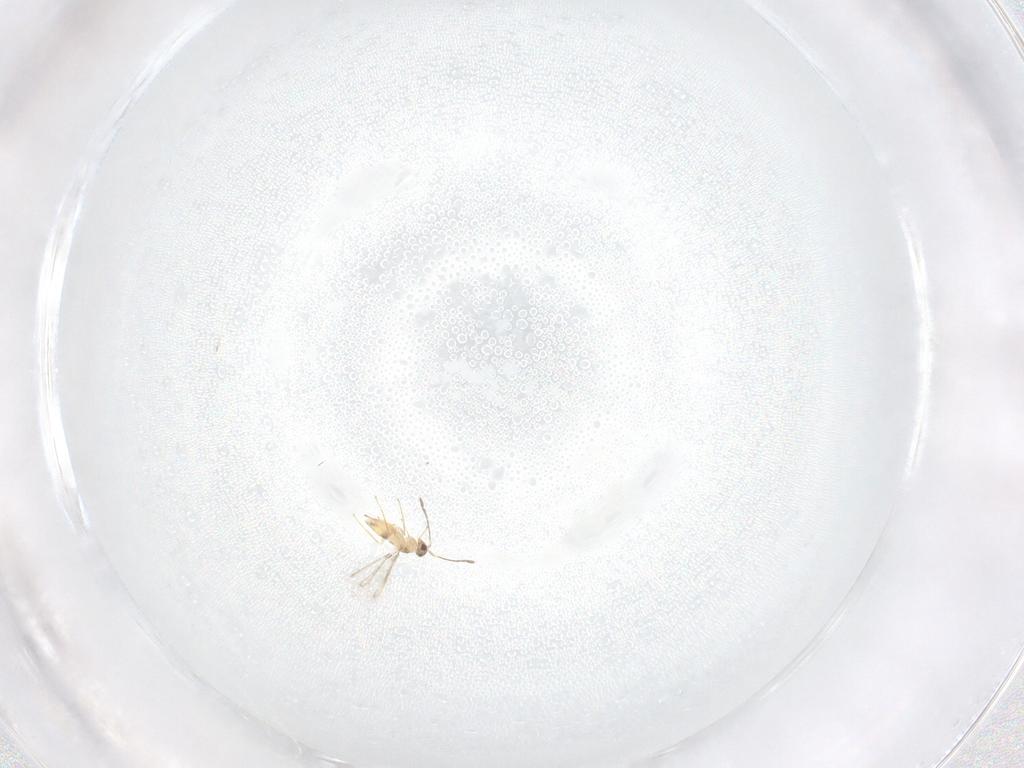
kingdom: Animalia
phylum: Arthropoda
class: Insecta
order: Hymenoptera
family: Mymaridae
